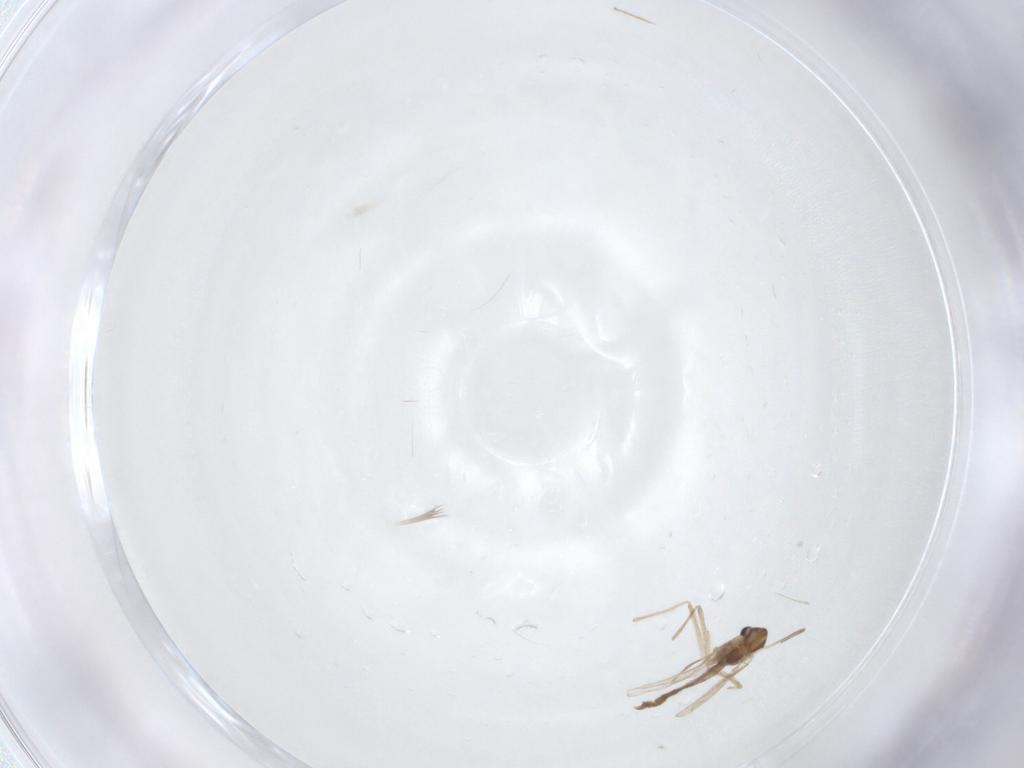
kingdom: Animalia
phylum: Arthropoda
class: Insecta
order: Diptera
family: Chironomidae
